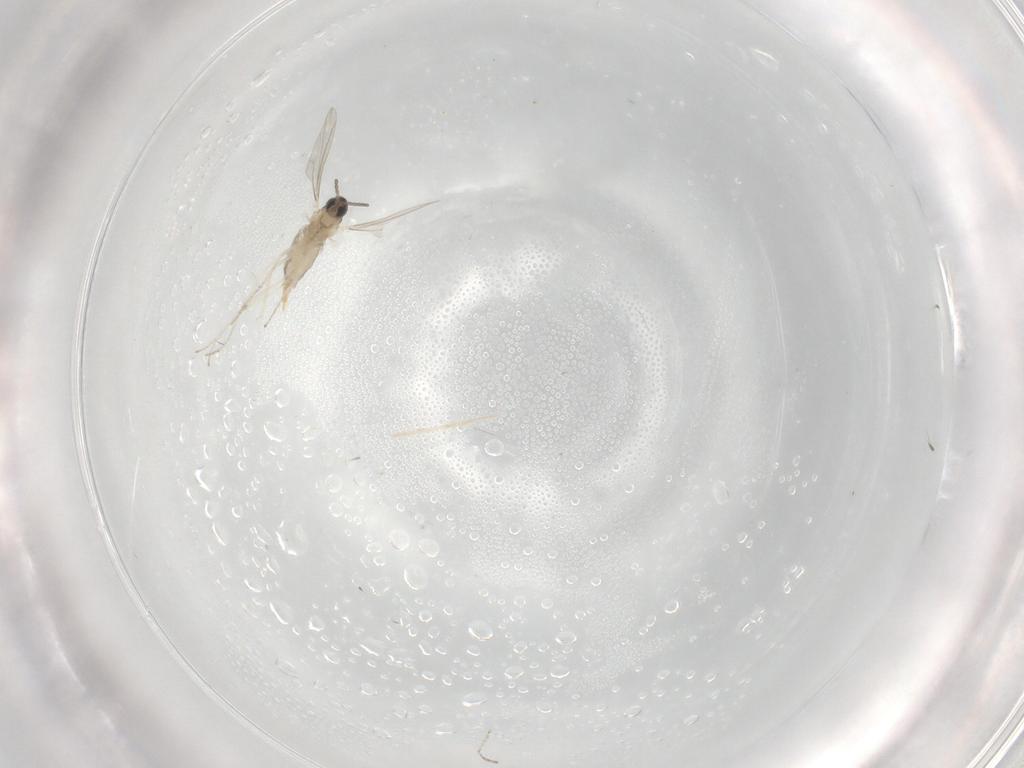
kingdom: Animalia
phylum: Arthropoda
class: Insecta
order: Diptera
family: Cecidomyiidae
